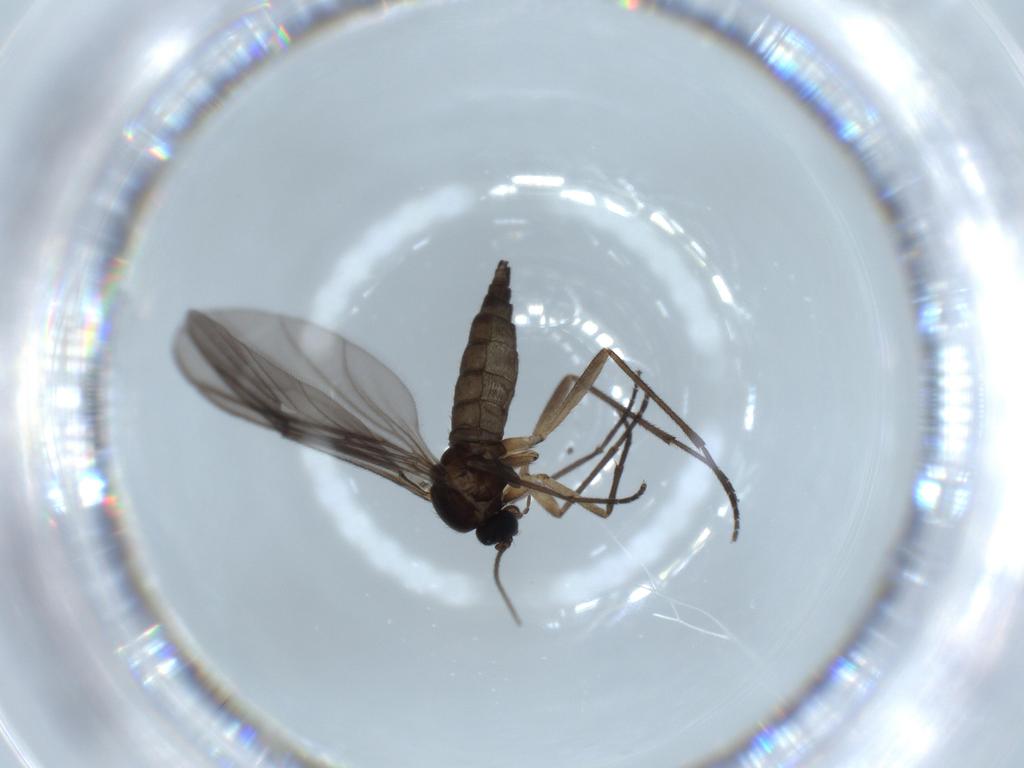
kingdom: Animalia
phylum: Arthropoda
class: Insecta
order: Diptera
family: Sciaridae
